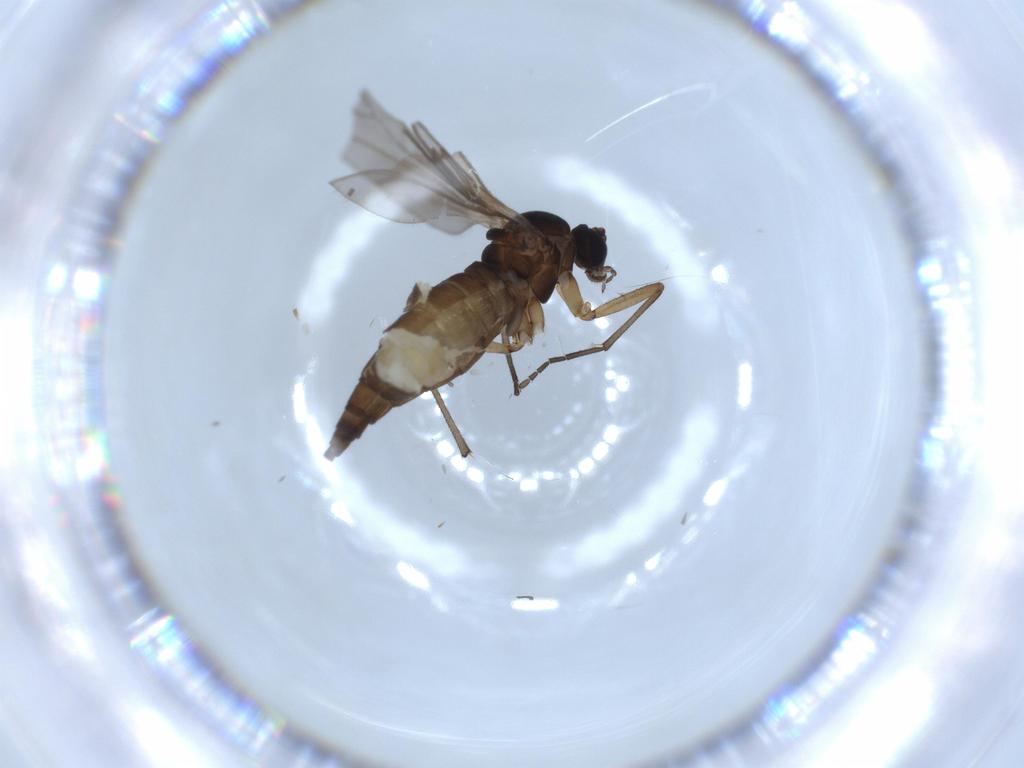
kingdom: Animalia
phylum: Arthropoda
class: Insecta
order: Diptera
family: Sciaridae
